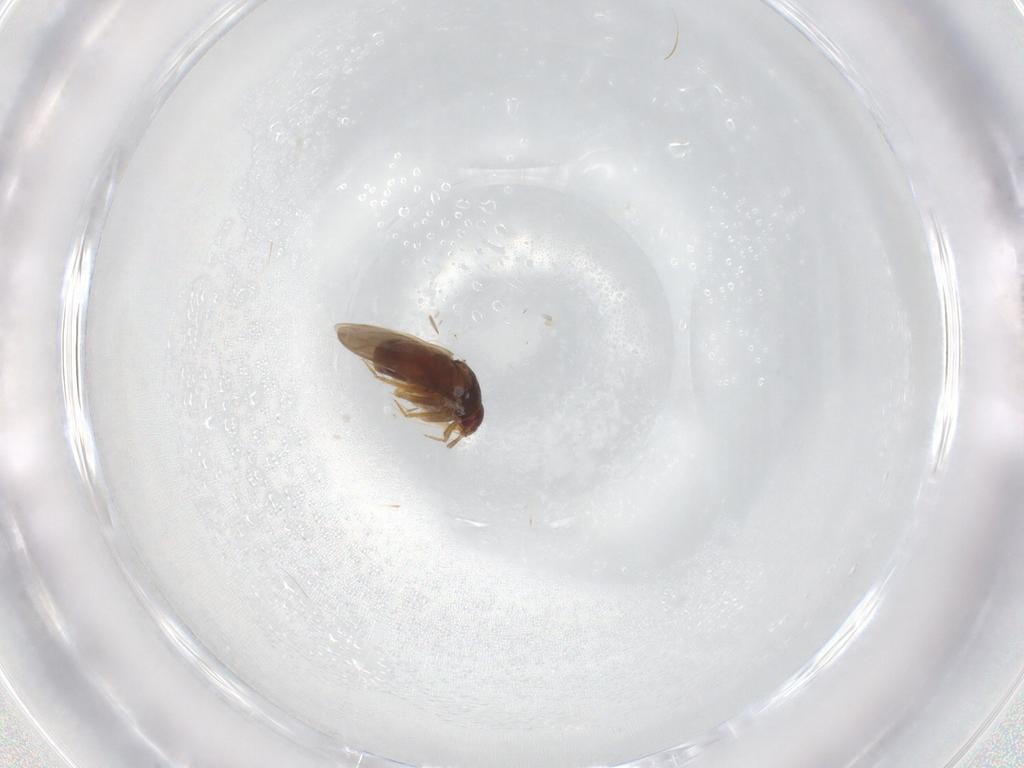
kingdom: Animalia
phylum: Arthropoda
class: Insecta
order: Hemiptera
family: Ceratocombidae
